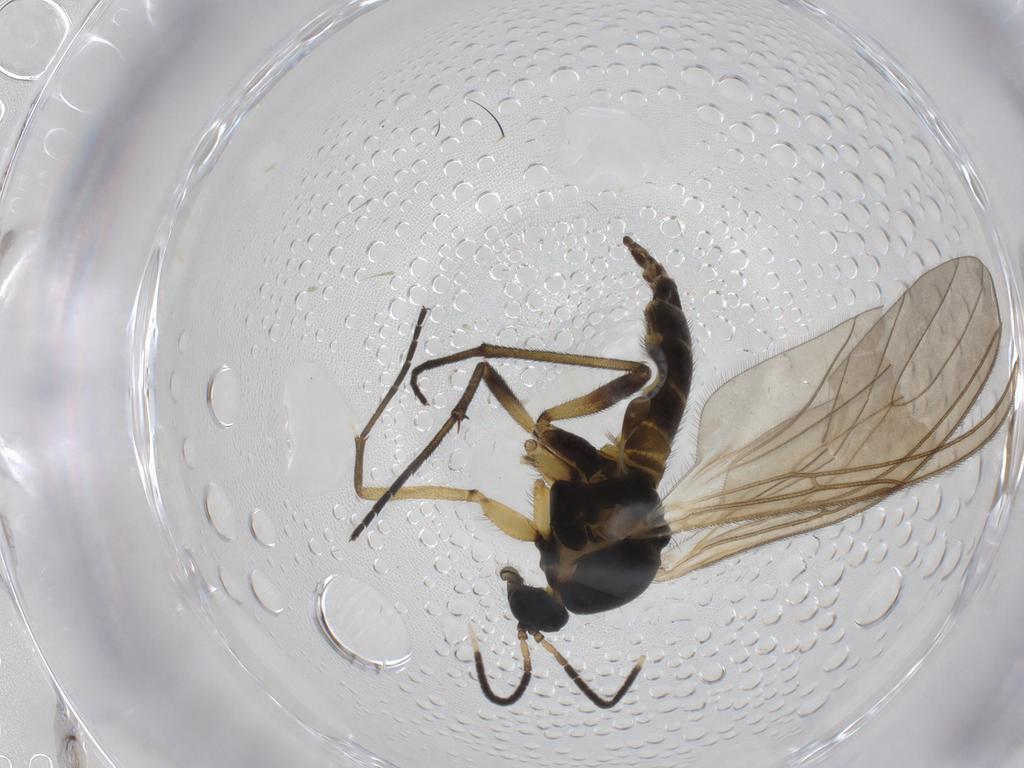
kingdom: Animalia
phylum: Arthropoda
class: Insecta
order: Diptera
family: Sciaridae
